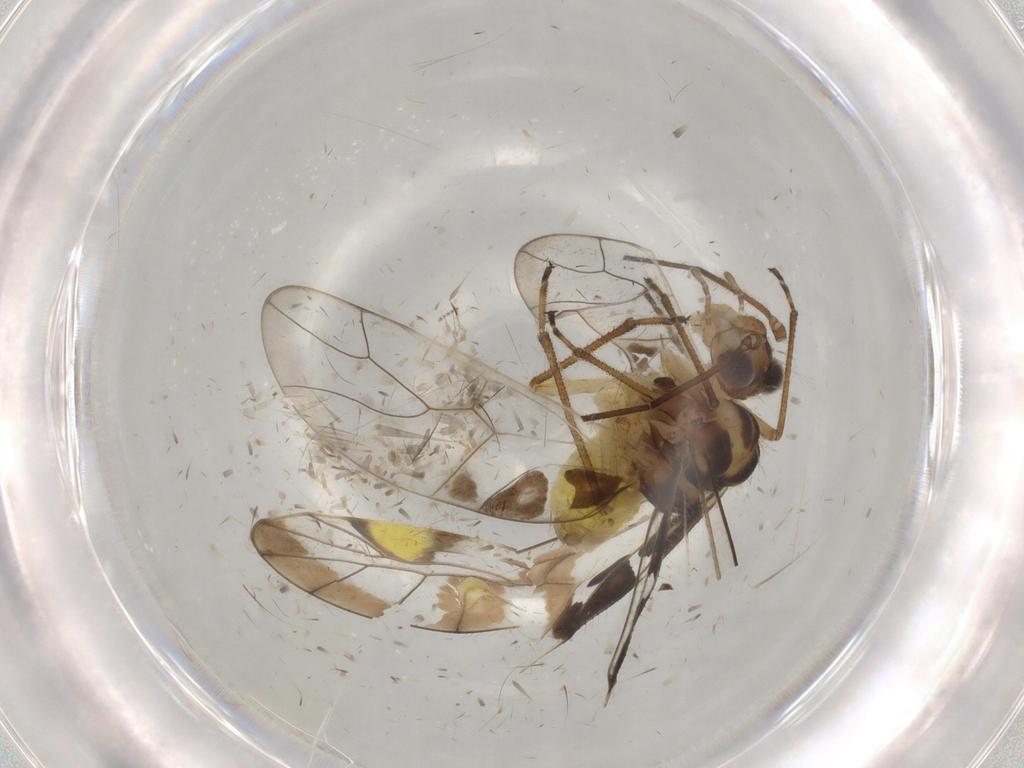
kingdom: Animalia
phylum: Arthropoda
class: Insecta
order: Psocodea
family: Amphipsocidae
